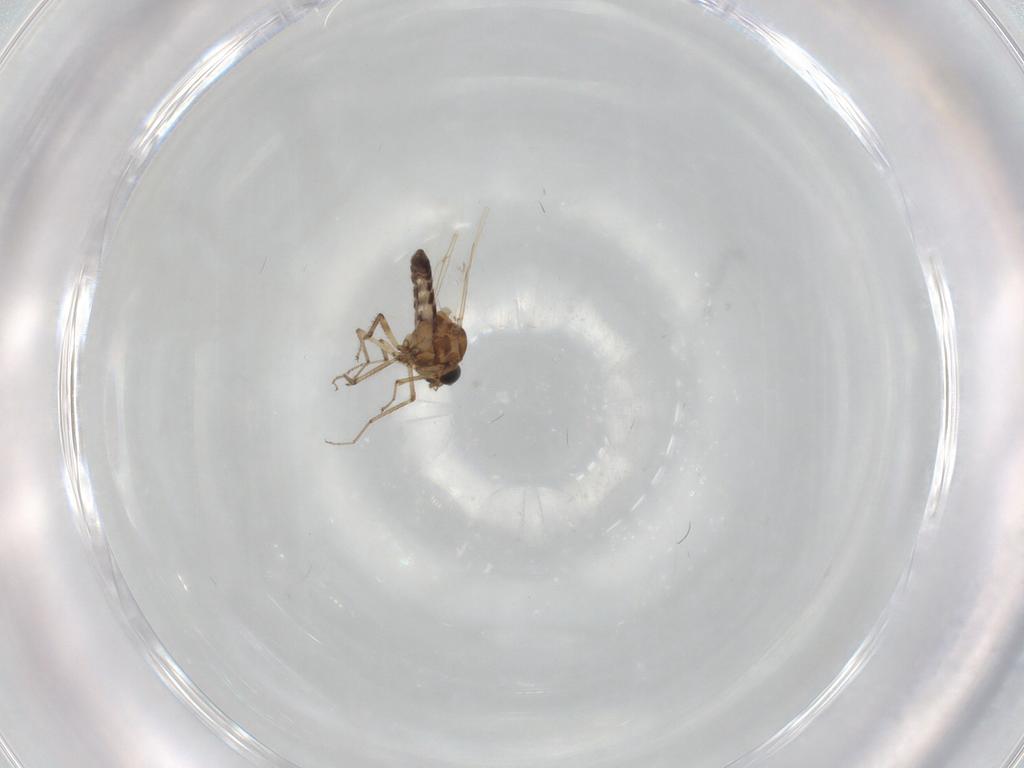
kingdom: Animalia
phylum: Arthropoda
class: Insecta
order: Diptera
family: Ceratopogonidae
